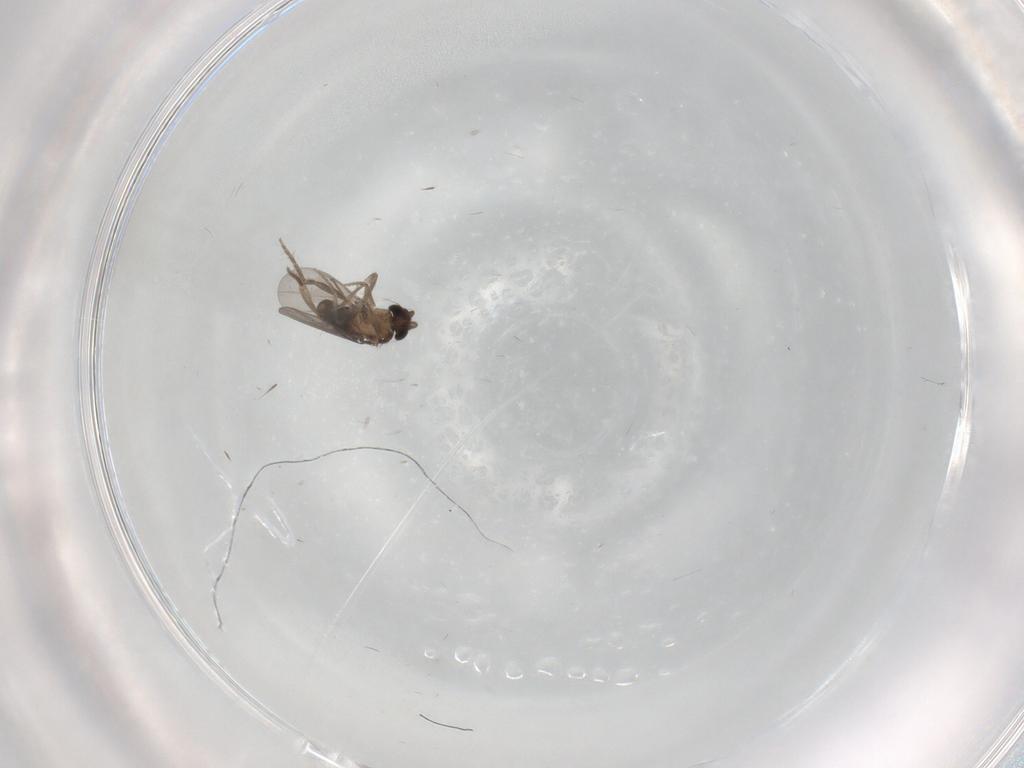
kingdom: Animalia
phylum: Arthropoda
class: Insecta
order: Diptera
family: Cecidomyiidae
